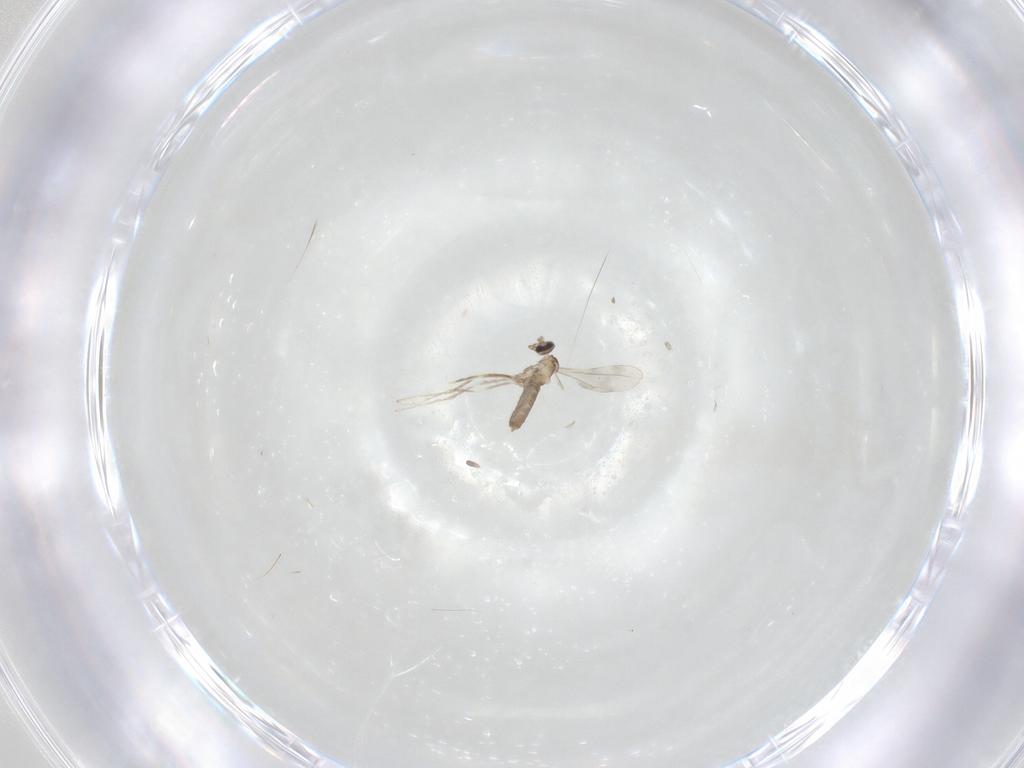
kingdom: Animalia
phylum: Arthropoda
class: Insecta
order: Diptera
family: Cecidomyiidae
